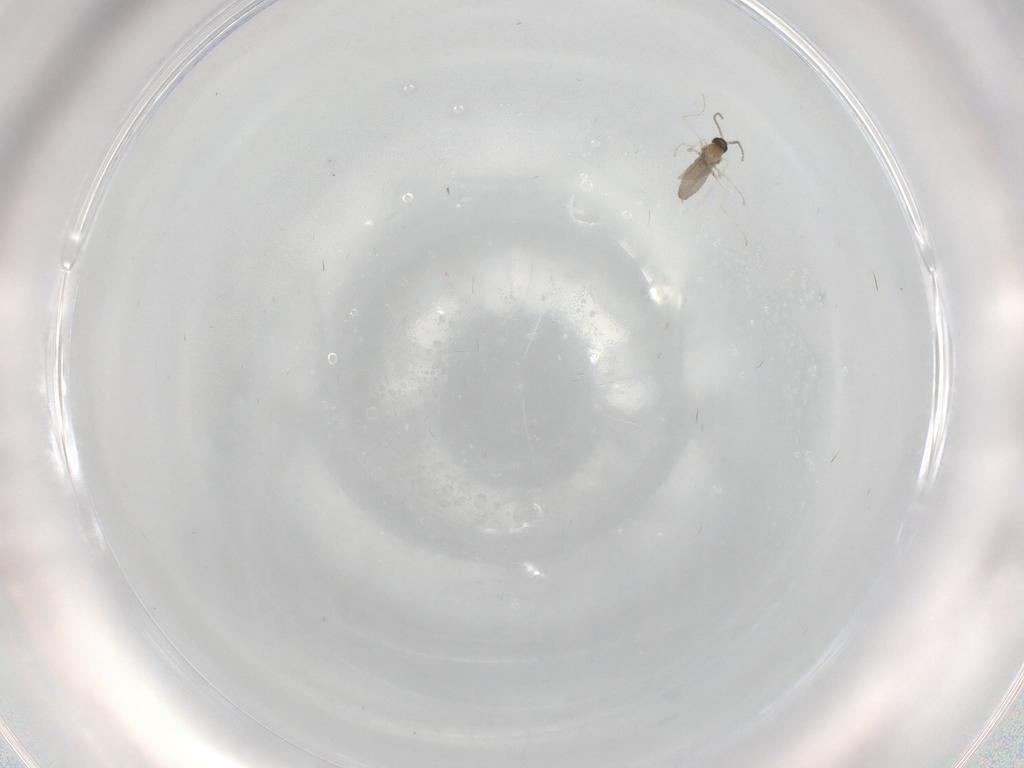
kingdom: Animalia
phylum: Arthropoda
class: Insecta
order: Diptera
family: Cecidomyiidae
